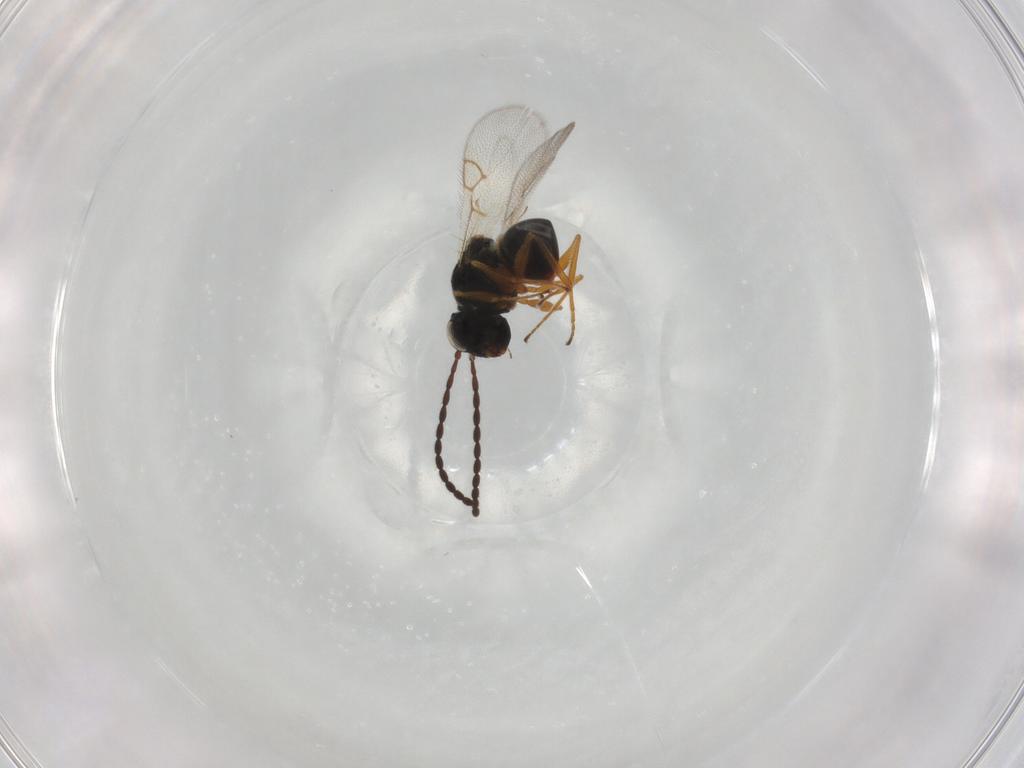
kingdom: Animalia
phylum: Arthropoda
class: Insecta
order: Hymenoptera
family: Figitidae
